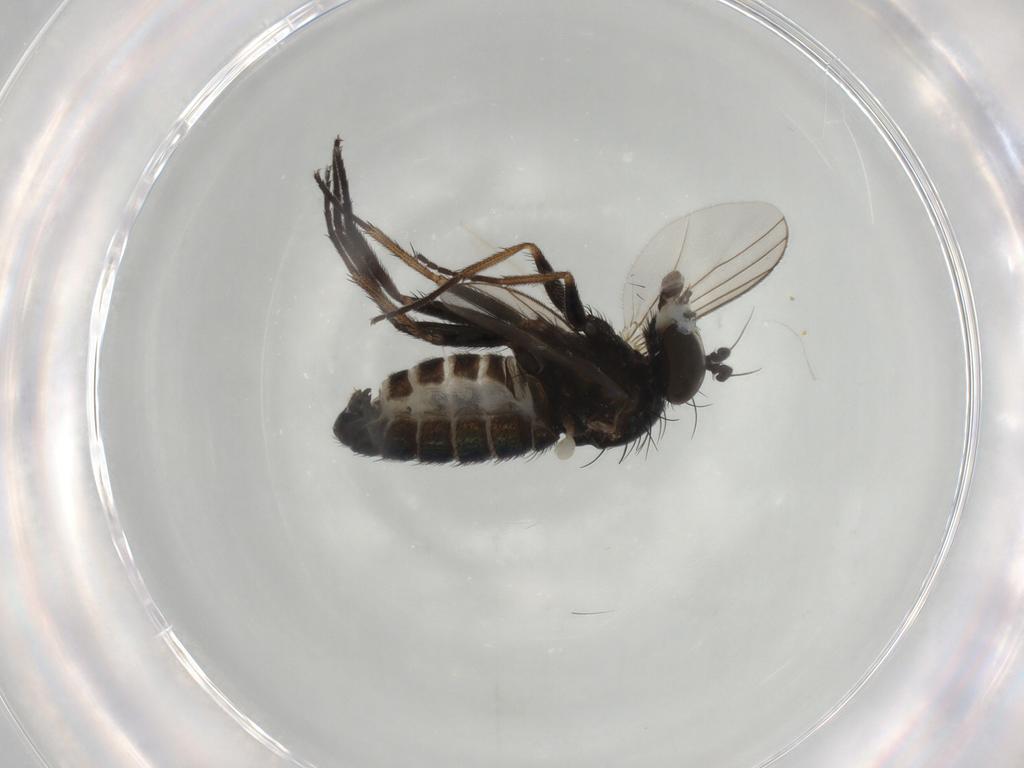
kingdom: Animalia
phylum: Arthropoda
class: Insecta
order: Diptera
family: Dolichopodidae
